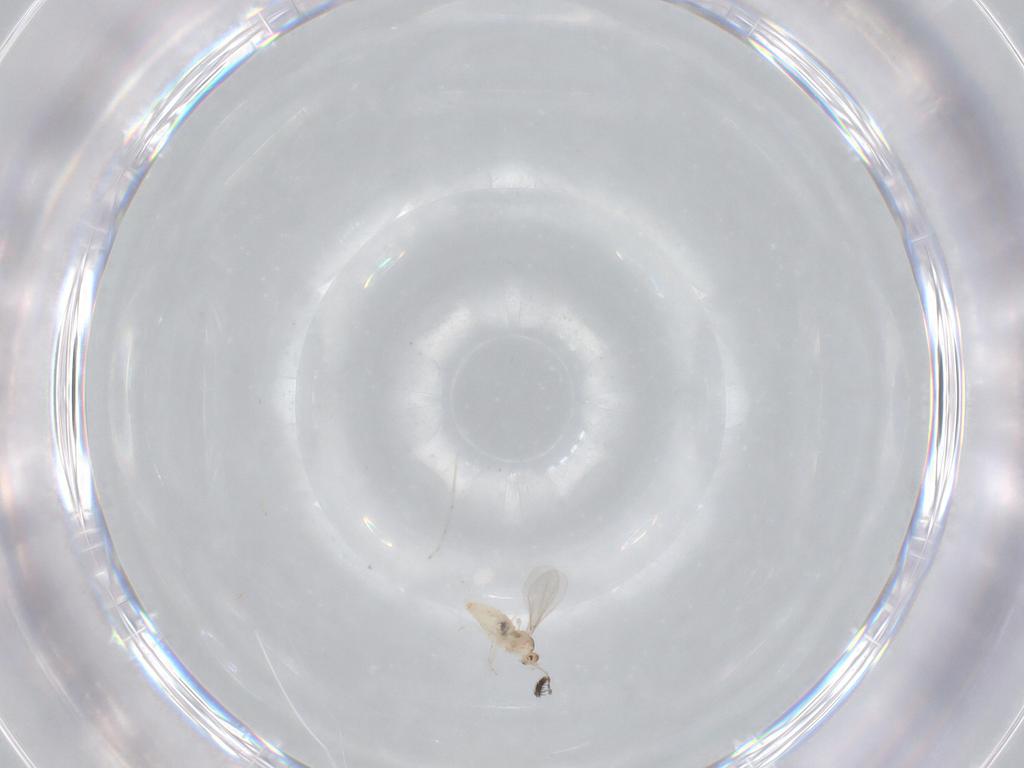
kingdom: Animalia
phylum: Arthropoda
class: Insecta
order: Diptera
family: Cecidomyiidae
